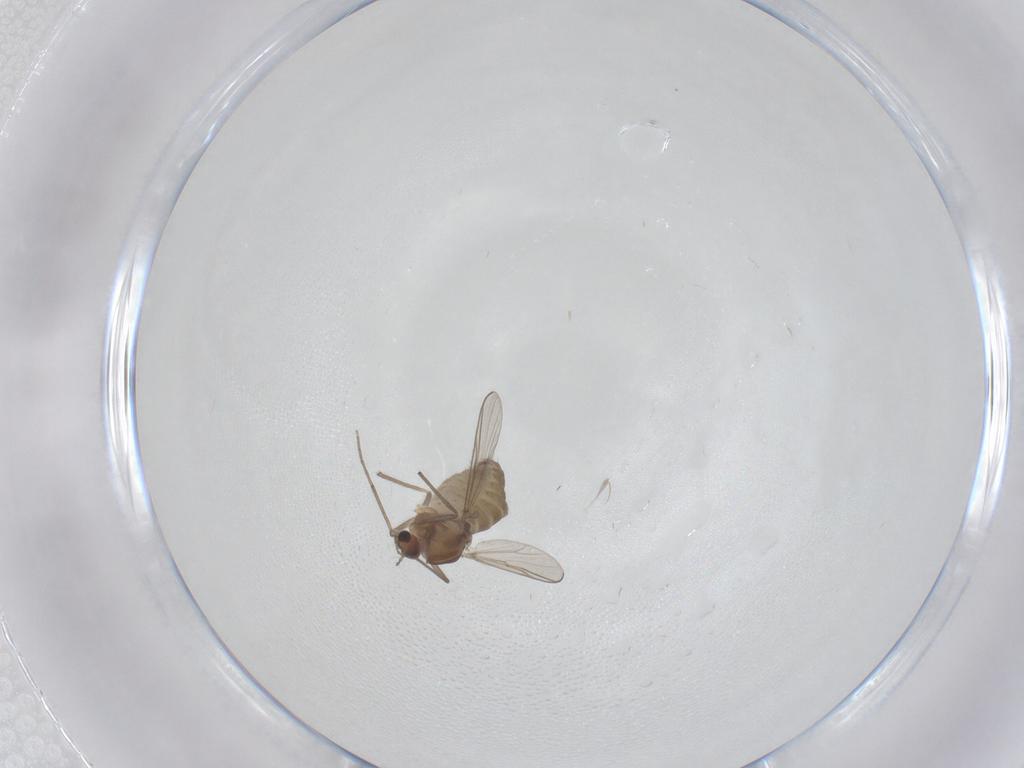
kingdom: Animalia
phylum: Arthropoda
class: Insecta
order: Diptera
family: Chironomidae
